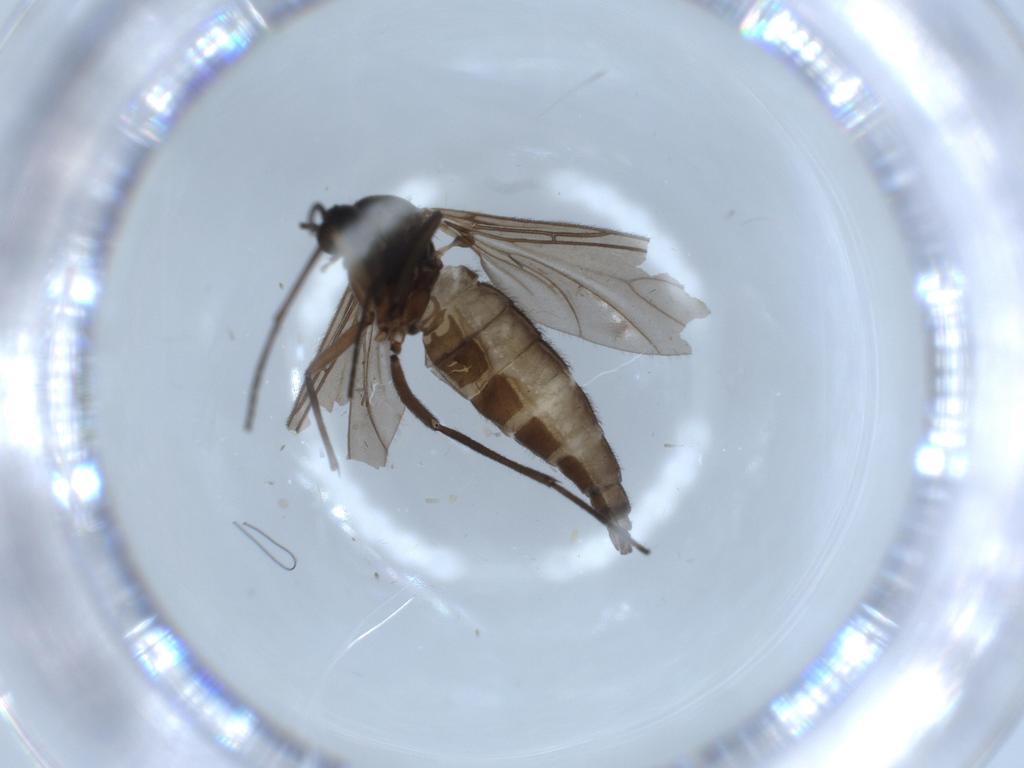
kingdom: Animalia
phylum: Arthropoda
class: Insecta
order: Diptera
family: Sciaridae
